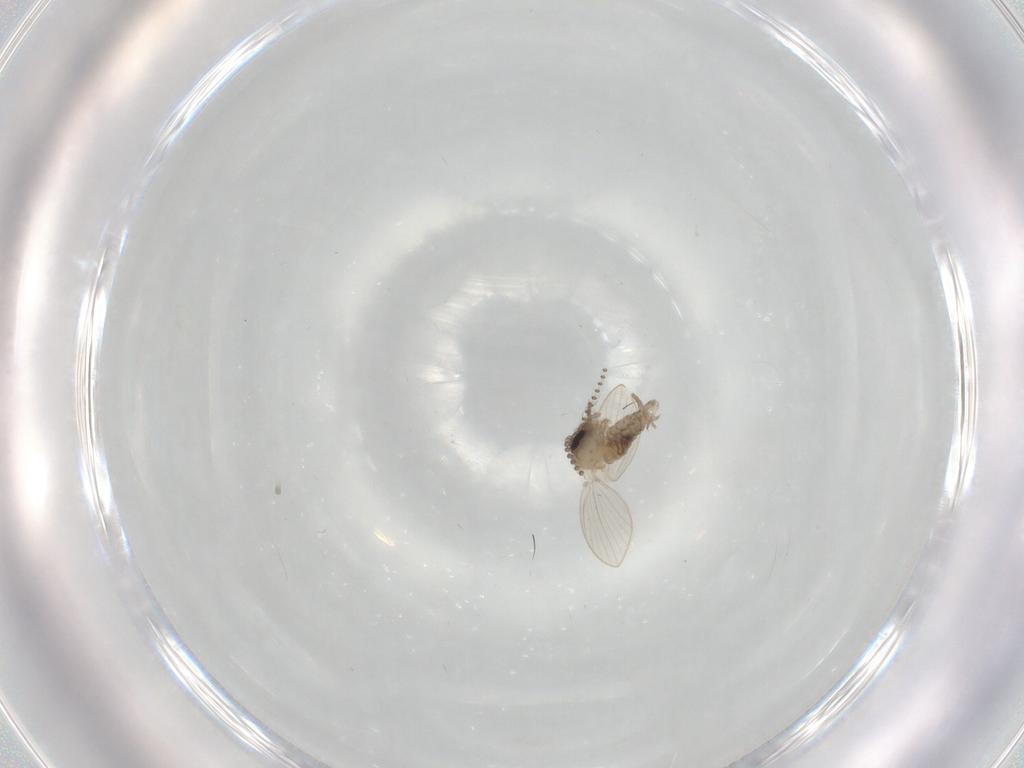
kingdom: Animalia
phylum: Arthropoda
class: Insecta
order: Diptera
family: Psychodidae
